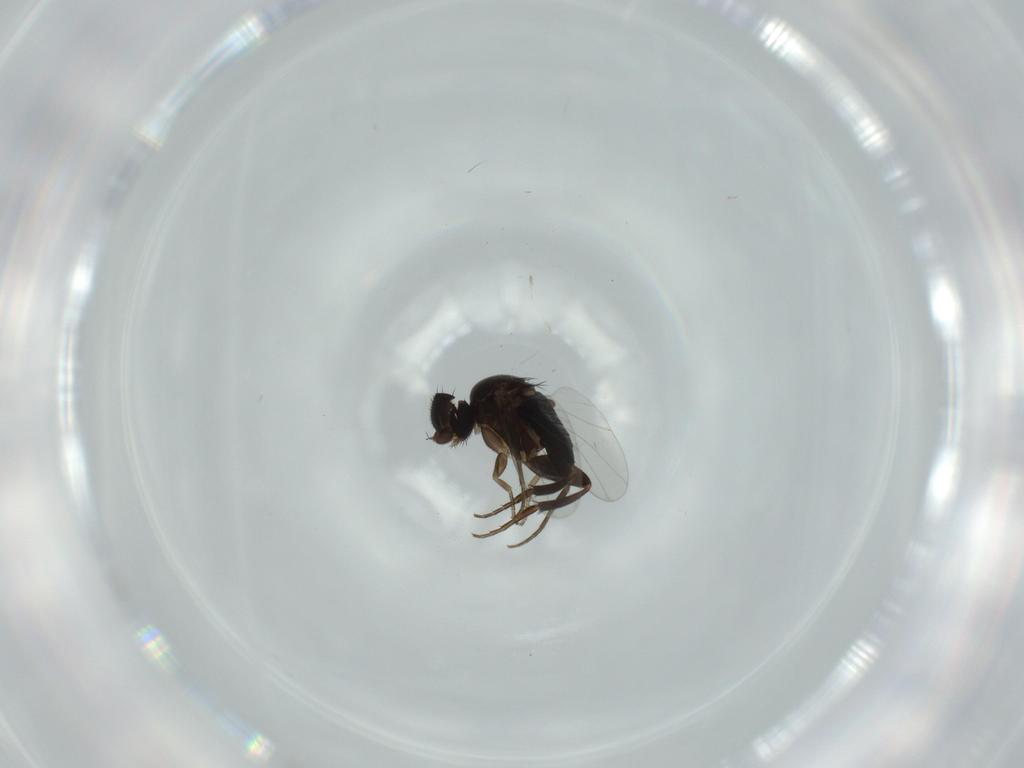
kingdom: Animalia
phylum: Arthropoda
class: Insecta
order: Diptera
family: Phoridae
